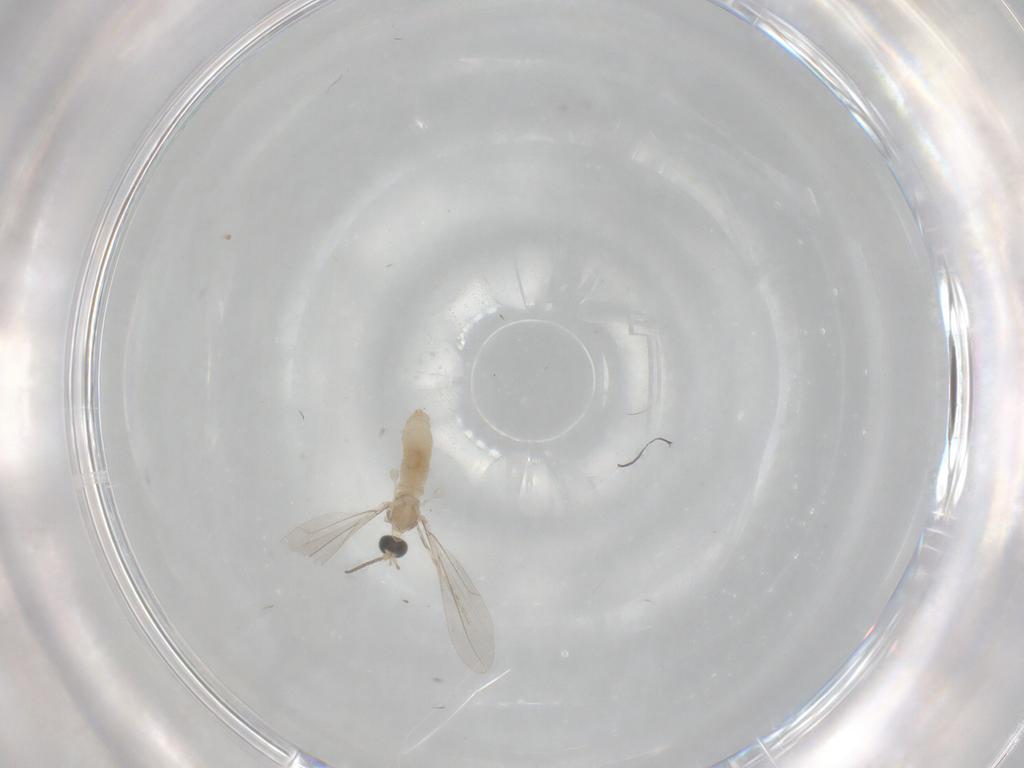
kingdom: Animalia
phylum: Arthropoda
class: Insecta
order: Diptera
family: Sciaridae
